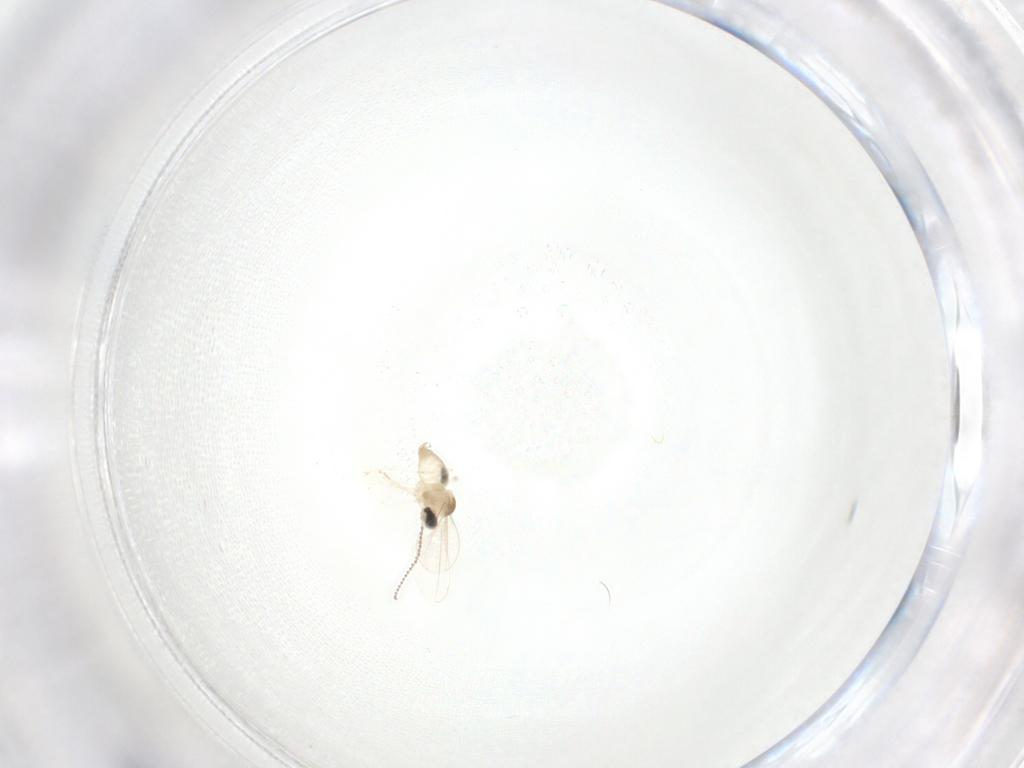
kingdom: Animalia
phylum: Arthropoda
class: Insecta
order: Diptera
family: Cecidomyiidae
